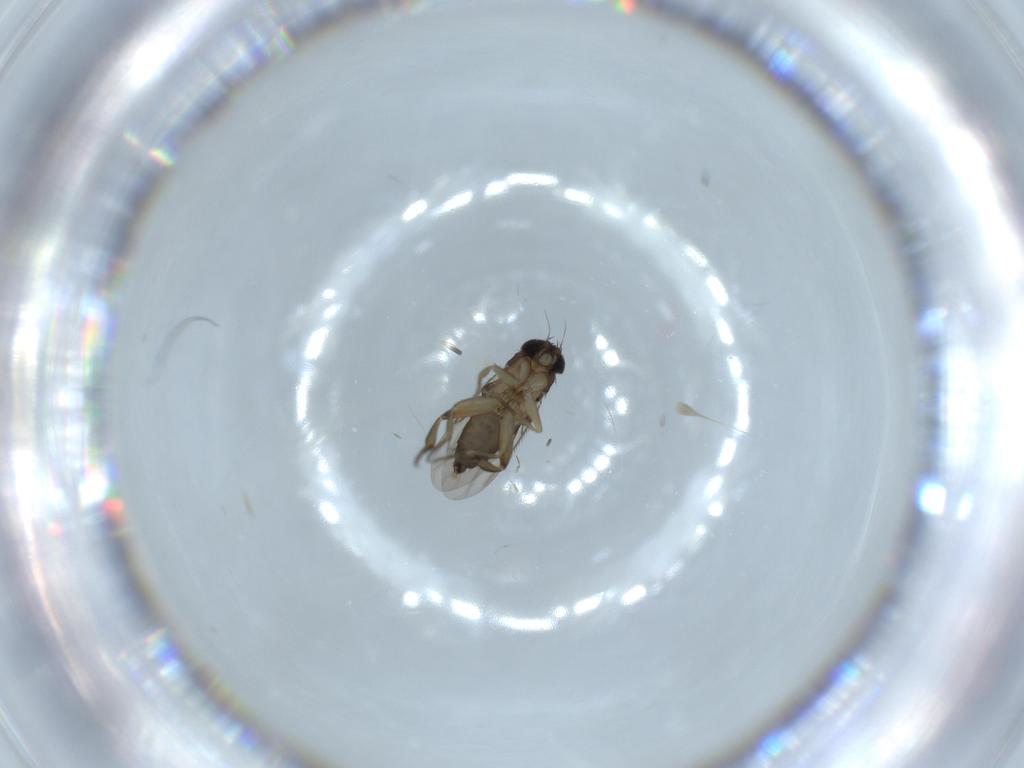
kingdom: Animalia
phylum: Arthropoda
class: Insecta
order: Diptera
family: Phoridae
